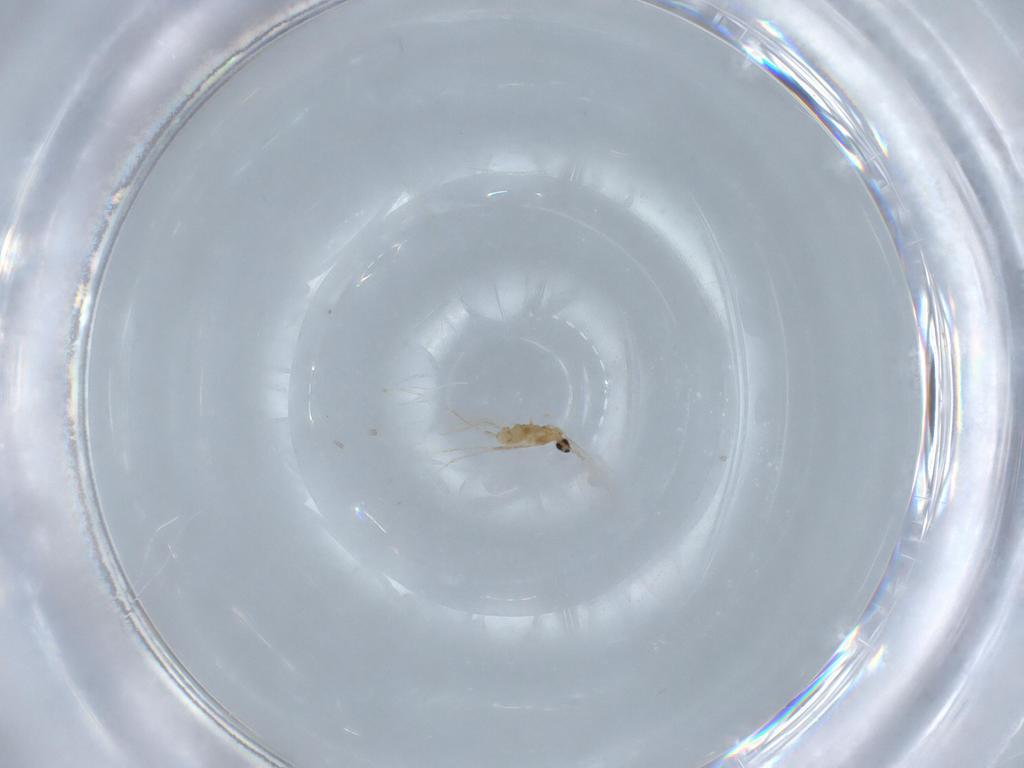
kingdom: Animalia
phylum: Arthropoda
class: Insecta
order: Diptera
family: Cecidomyiidae
